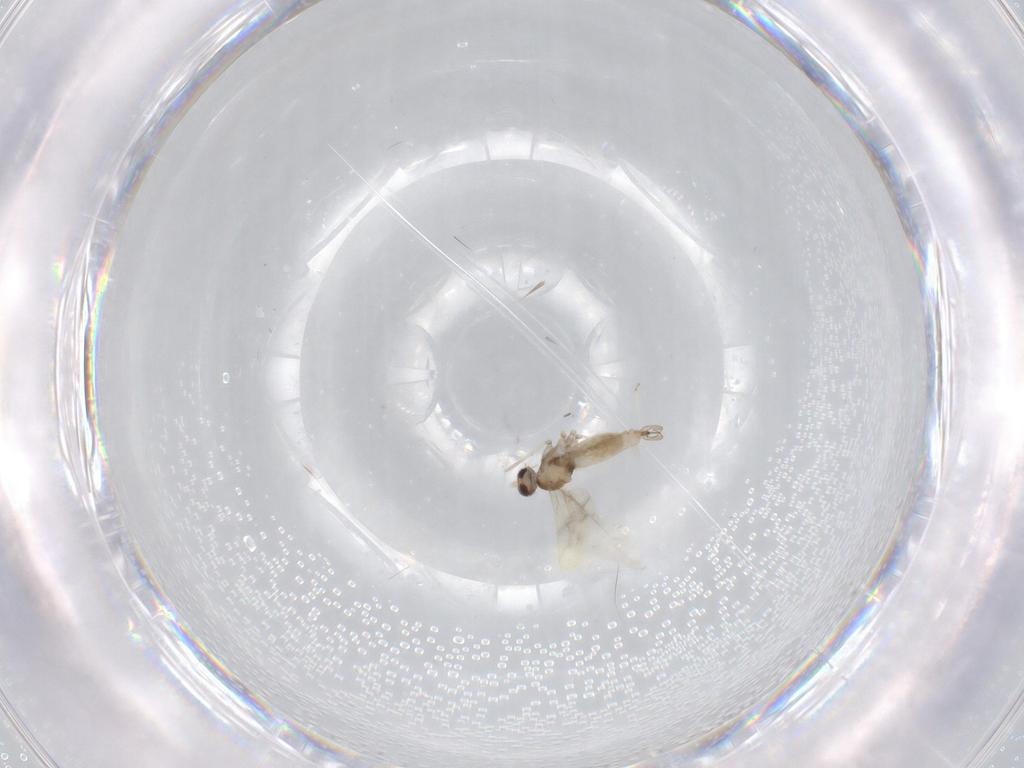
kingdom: Animalia
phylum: Arthropoda
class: Insecta
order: Diptera
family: Cecidomyiidae
